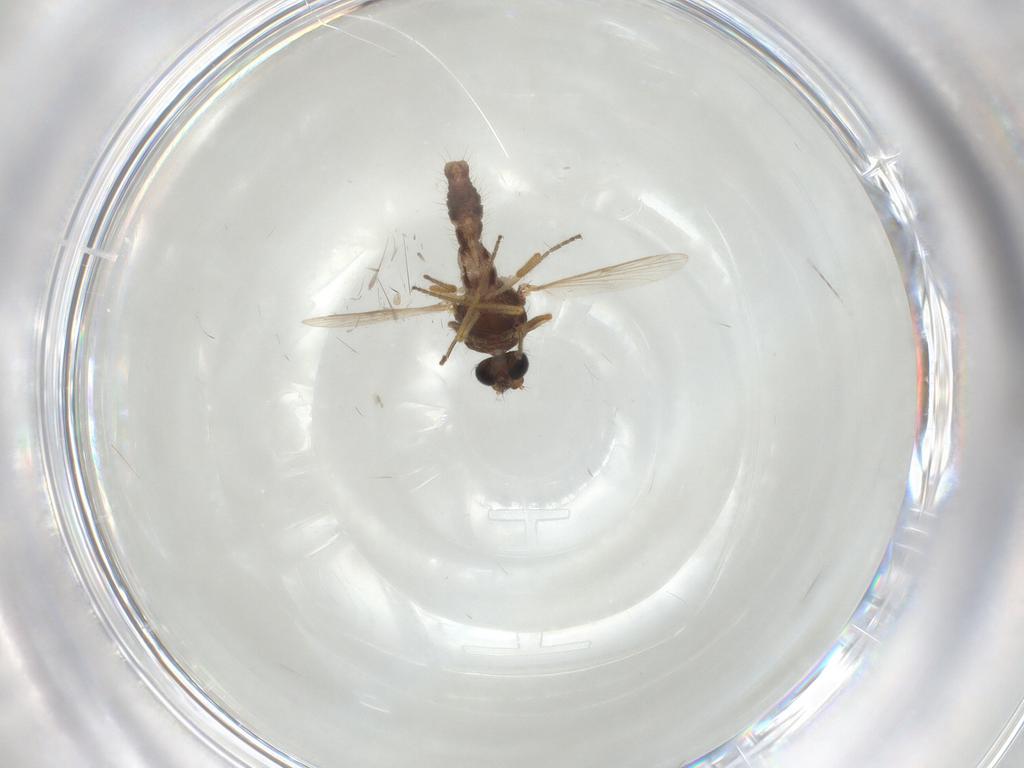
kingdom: Animalia
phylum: Arthropoda
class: Insecta
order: Diptera
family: Ceratopogonidae
